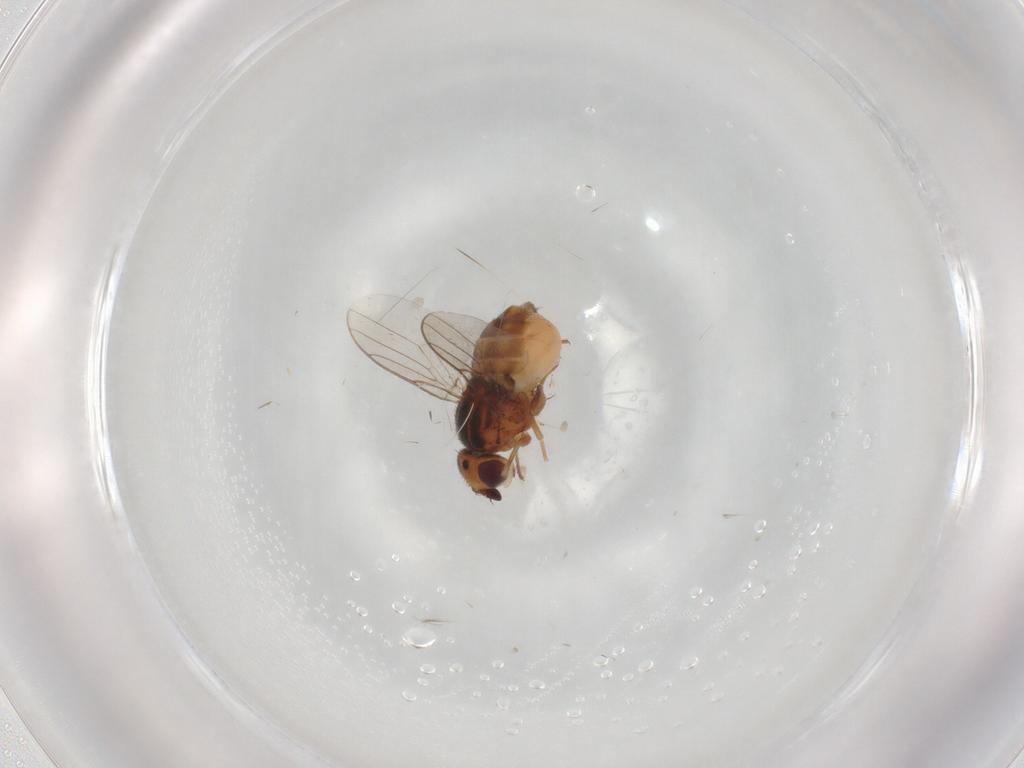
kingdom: Animalia
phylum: Arthropoda
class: Insecta
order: Diptera
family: Chloropidae
